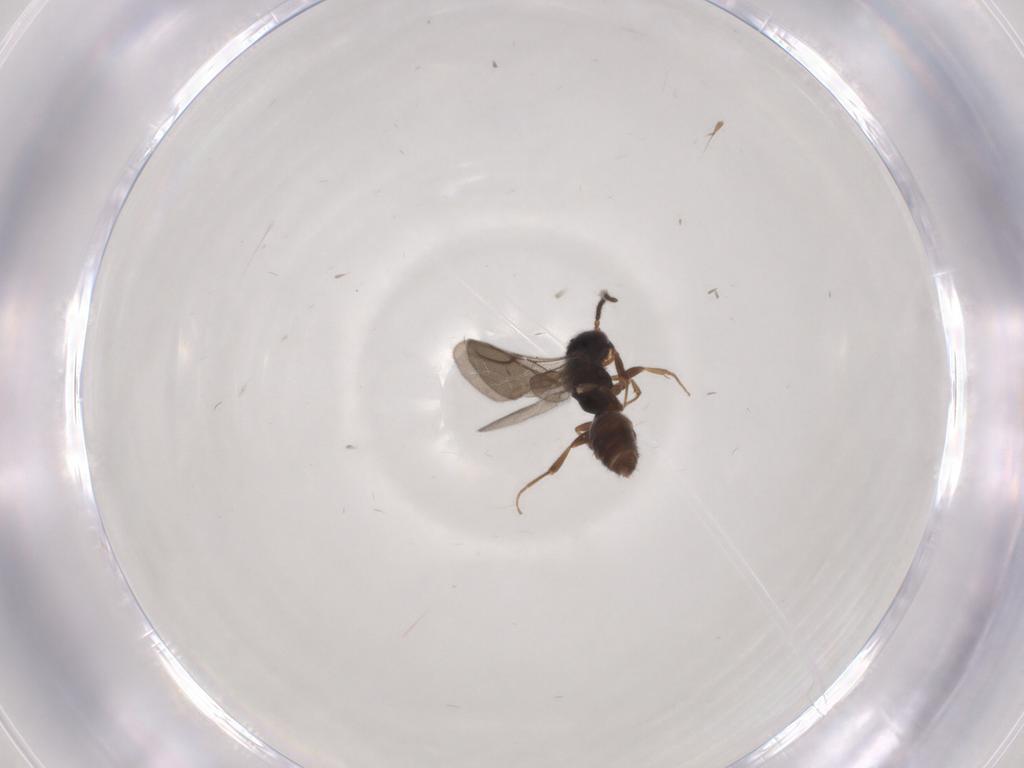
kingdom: Animalia
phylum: Arthropoda
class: Insecta
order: Hymenoptera
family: Bethylidae
